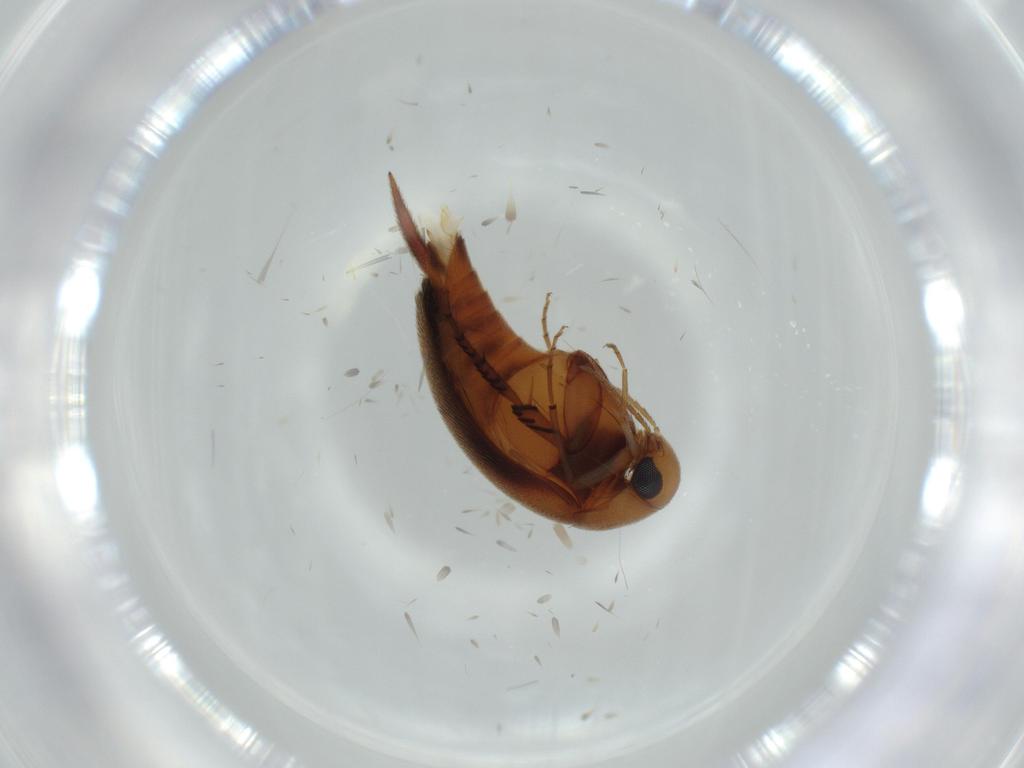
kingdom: Animalia
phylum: Arthropoda
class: Insecta
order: Coleoptera
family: Mordellidae
